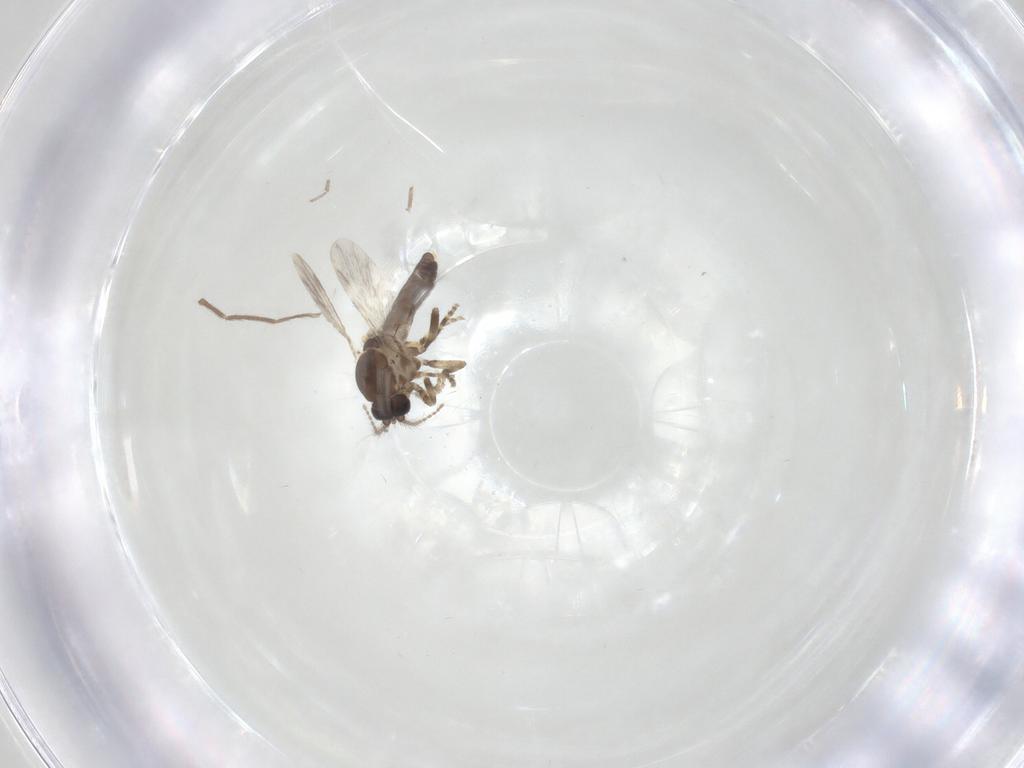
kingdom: Animalia
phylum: Arthropoda
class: Insecta
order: Diptera
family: Ceratopogonidae
